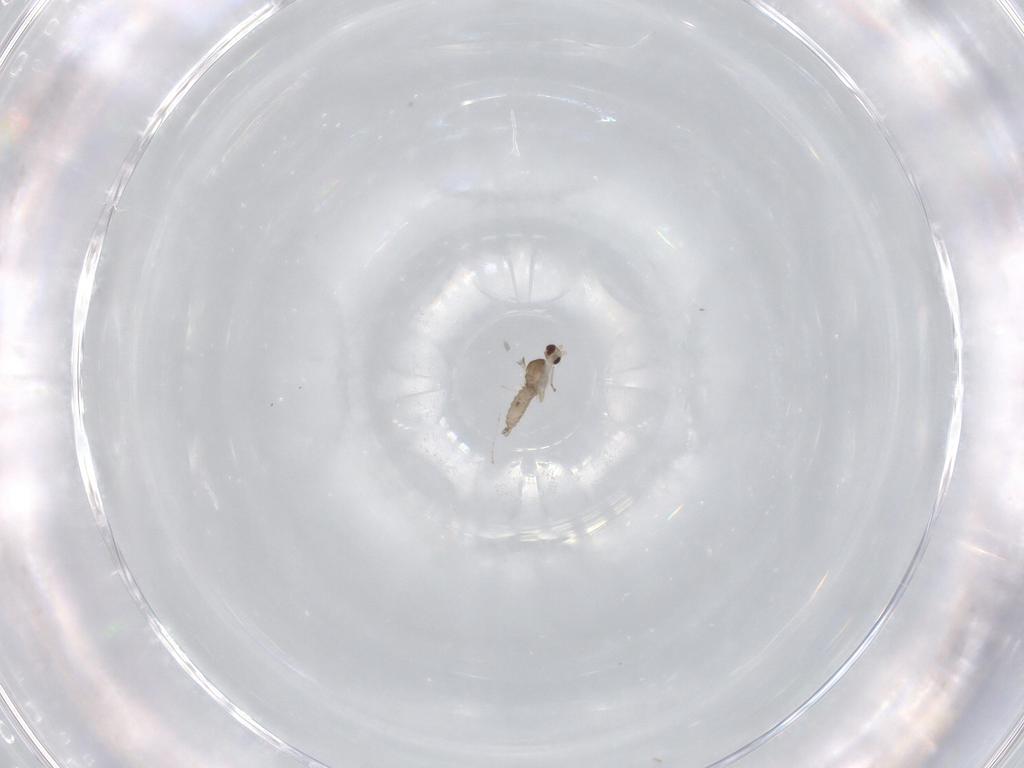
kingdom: Animalia
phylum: Arthropoda
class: Insecta
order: Diptera
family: Cecidomyiidae
